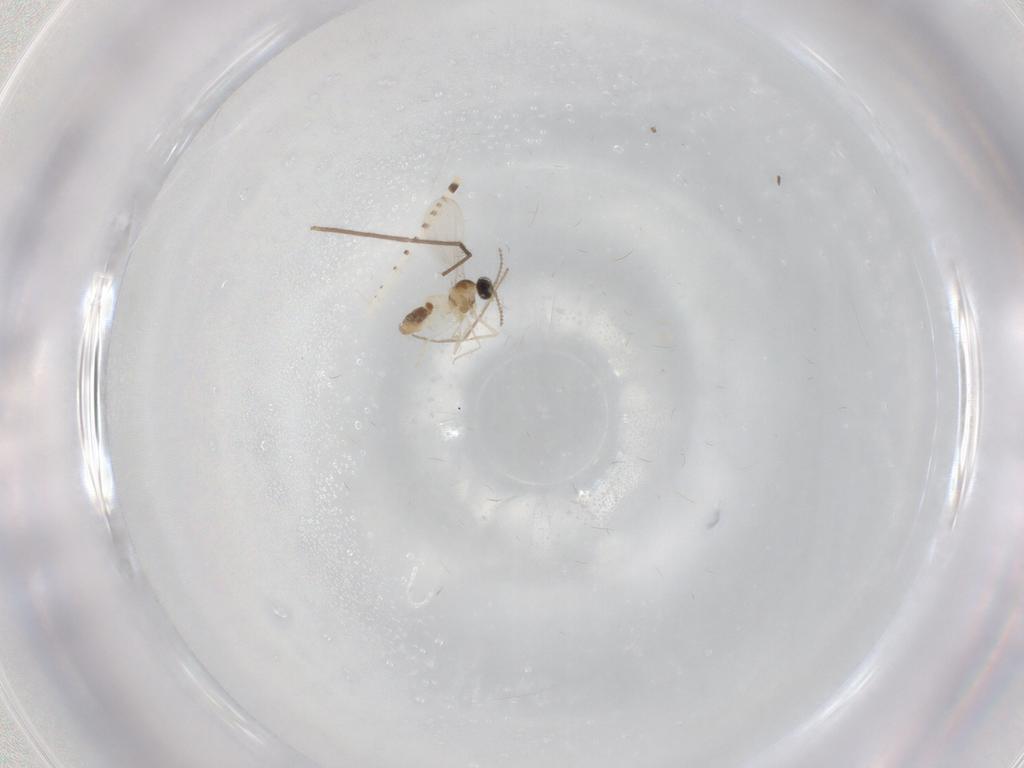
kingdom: Animalia
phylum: Arthropoda
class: Insecta
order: Diptera
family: Cecidomyiidae
